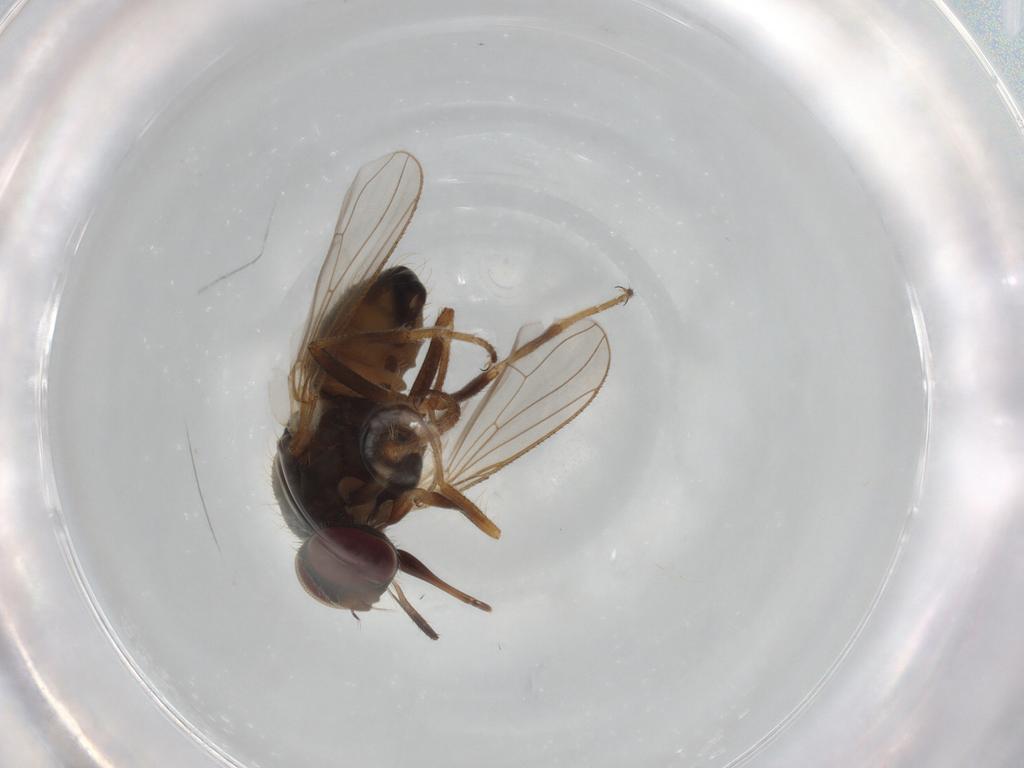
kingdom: Animalia
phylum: Arthropoda
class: Insecta
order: Diptera
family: Muscidae
